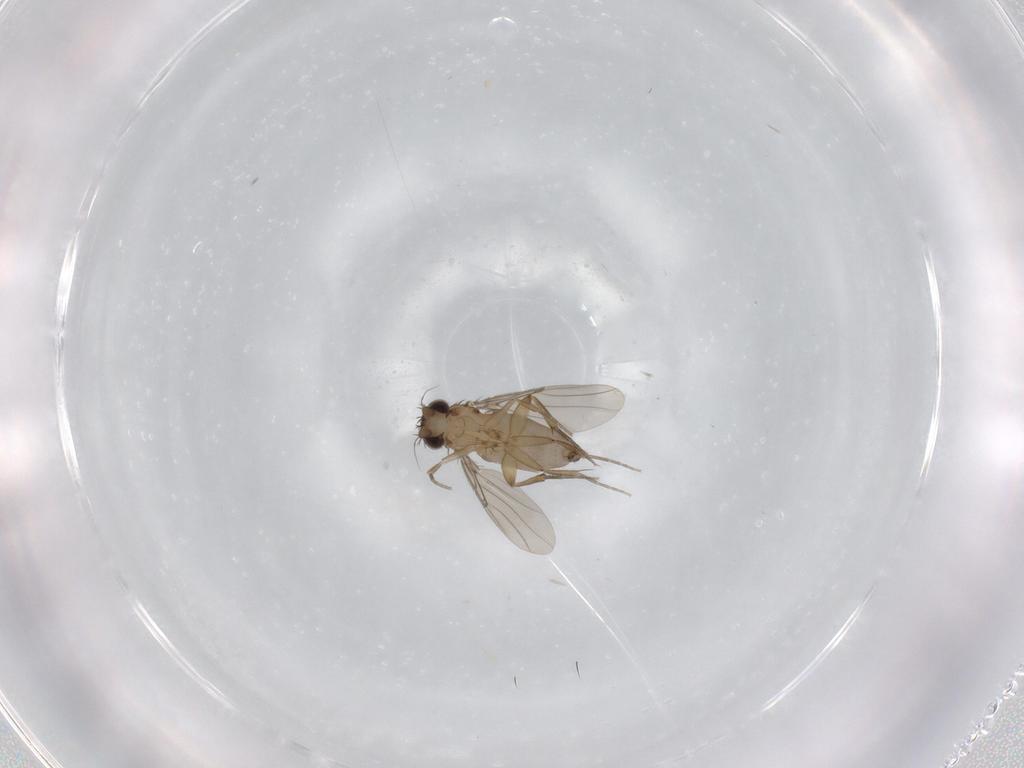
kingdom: Animalia
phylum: Arthropoda
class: Insecta
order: Diptera
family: Phoridae
